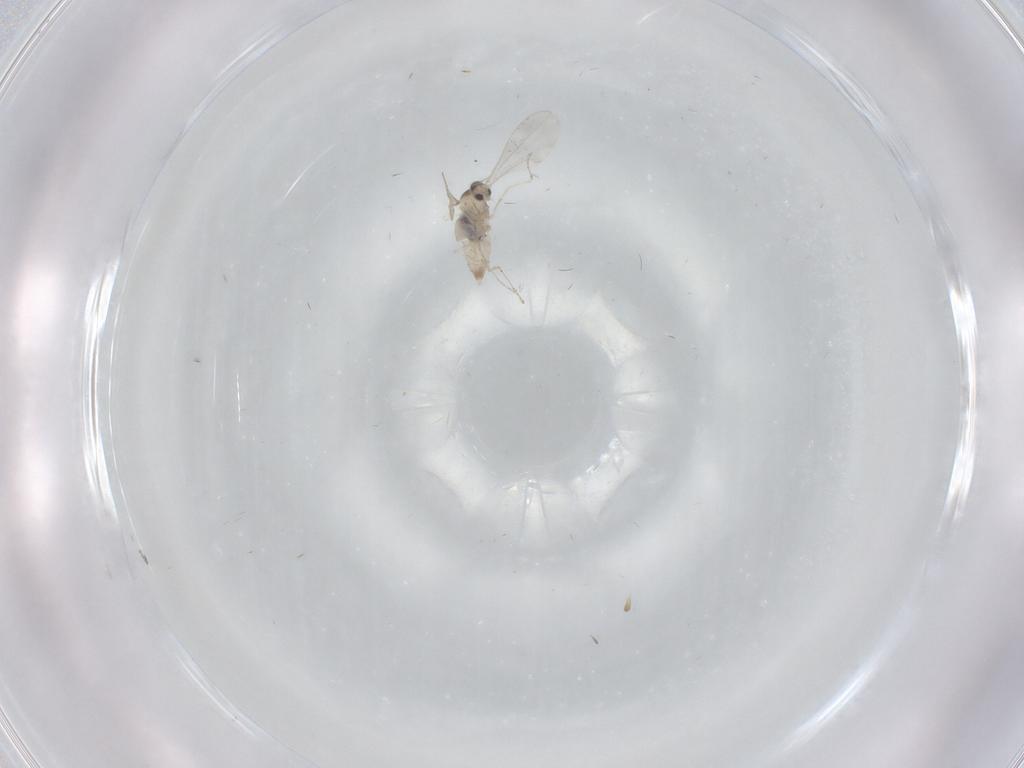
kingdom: Animalia
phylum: Arthropoda
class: Insecta
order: Diptera
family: Cecidomyiidae
